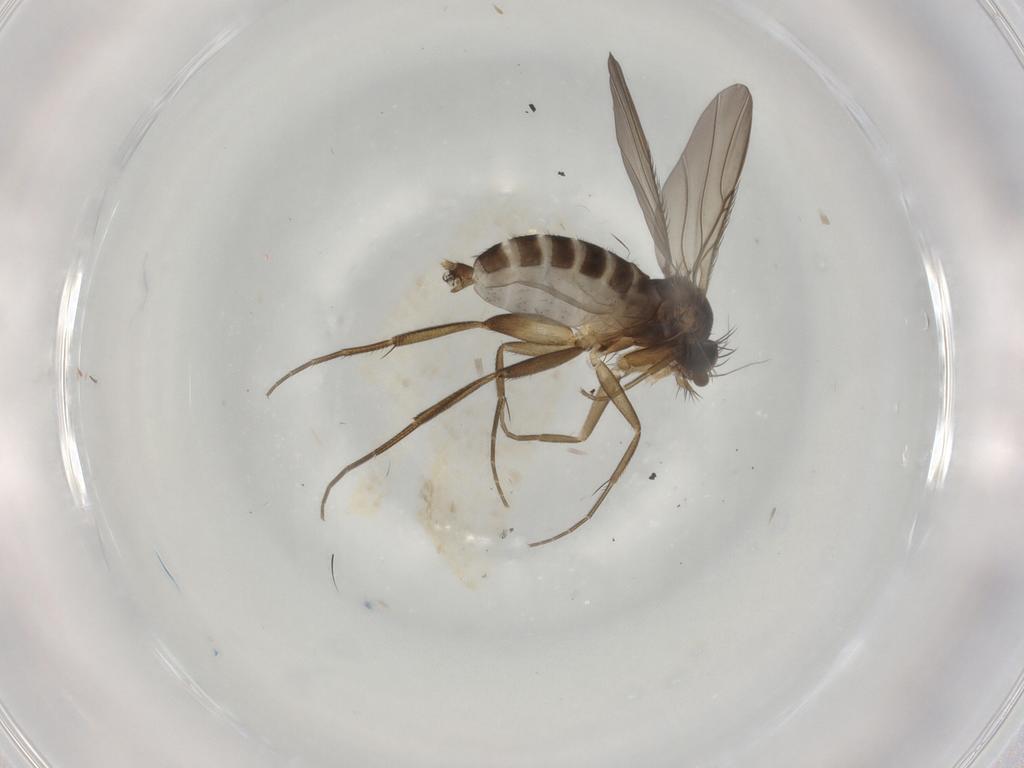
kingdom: Animalia
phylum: Arthropoda
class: Insecta
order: Diptera
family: Phoridae
